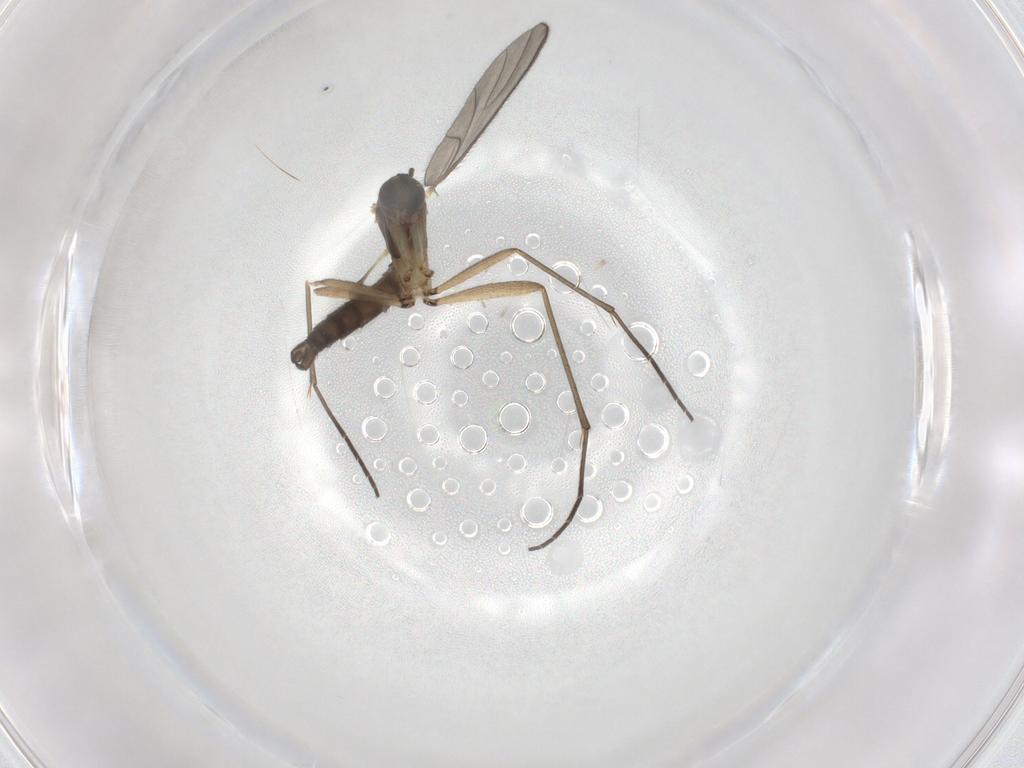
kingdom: Animalia
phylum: Arthropoda
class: Insecta
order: Diptera
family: Sciaridae
